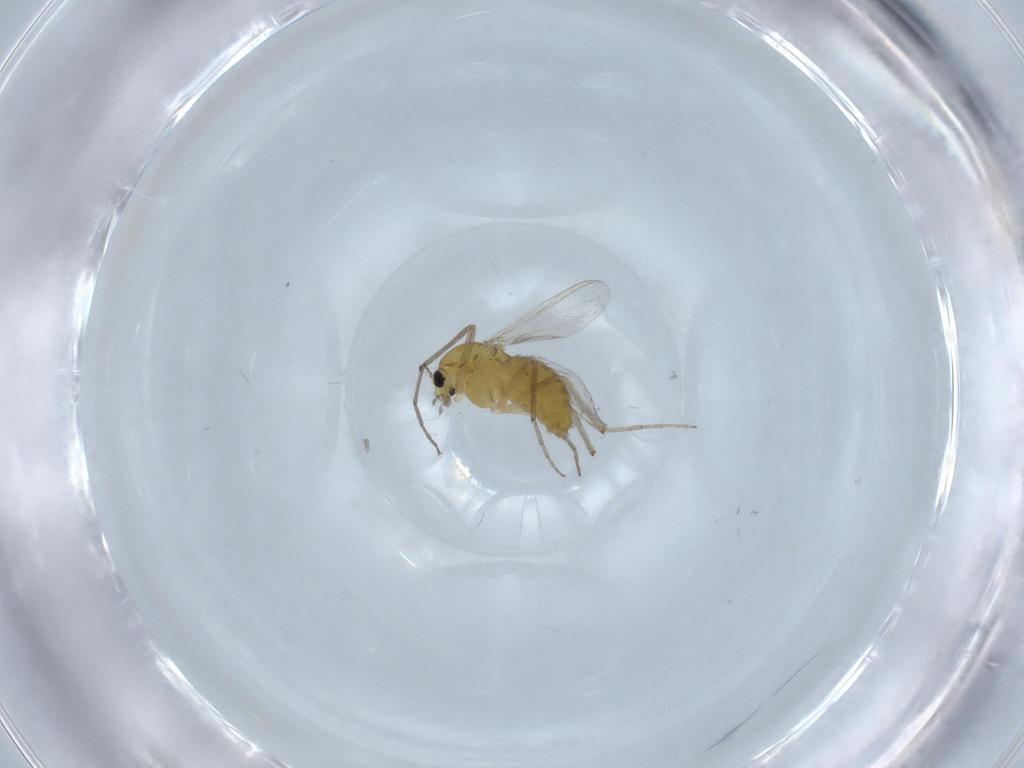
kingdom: Animalia
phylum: Arthropoda
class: Insecta
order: Diptera
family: Chironomidae
